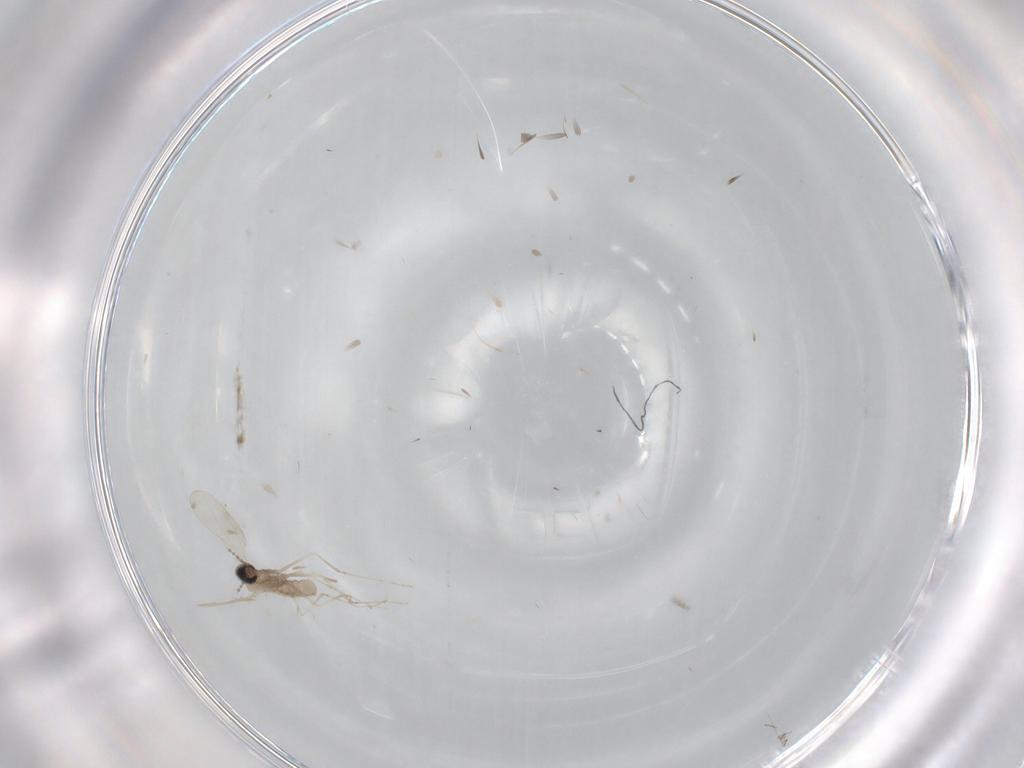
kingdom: Animalia
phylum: Arthropoda
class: Insecta
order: Diptera
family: Cecidomyiidae
